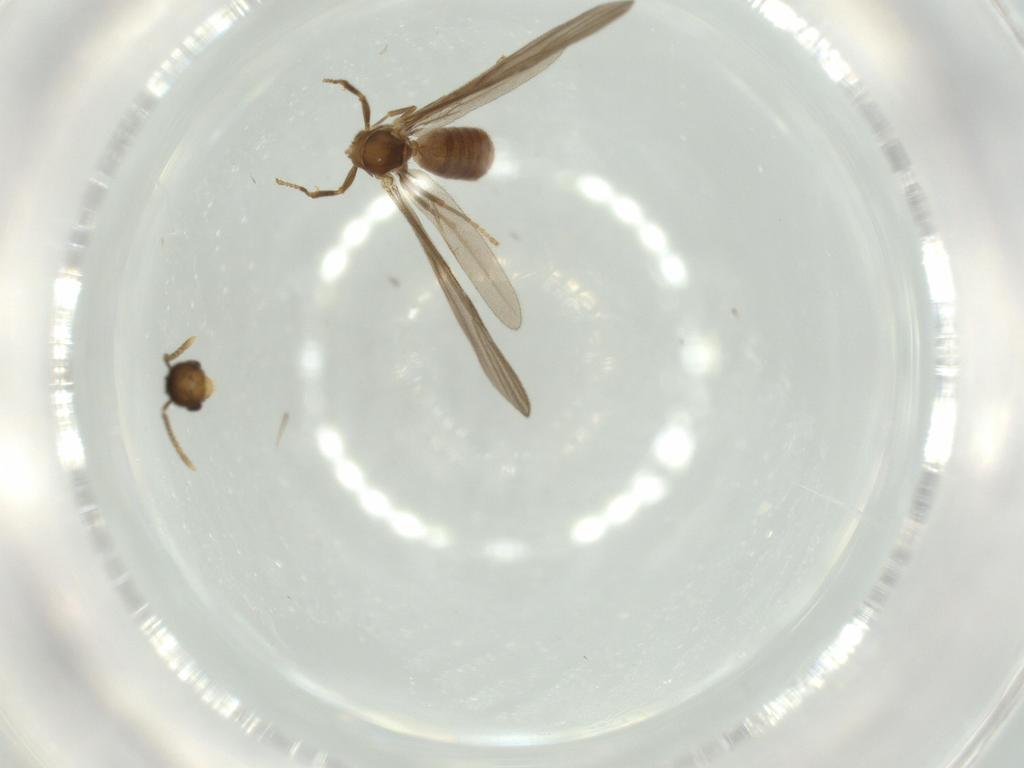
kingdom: Animalia
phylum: Arthropoda
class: Insecta
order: Hymenoptera
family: Formicidae
